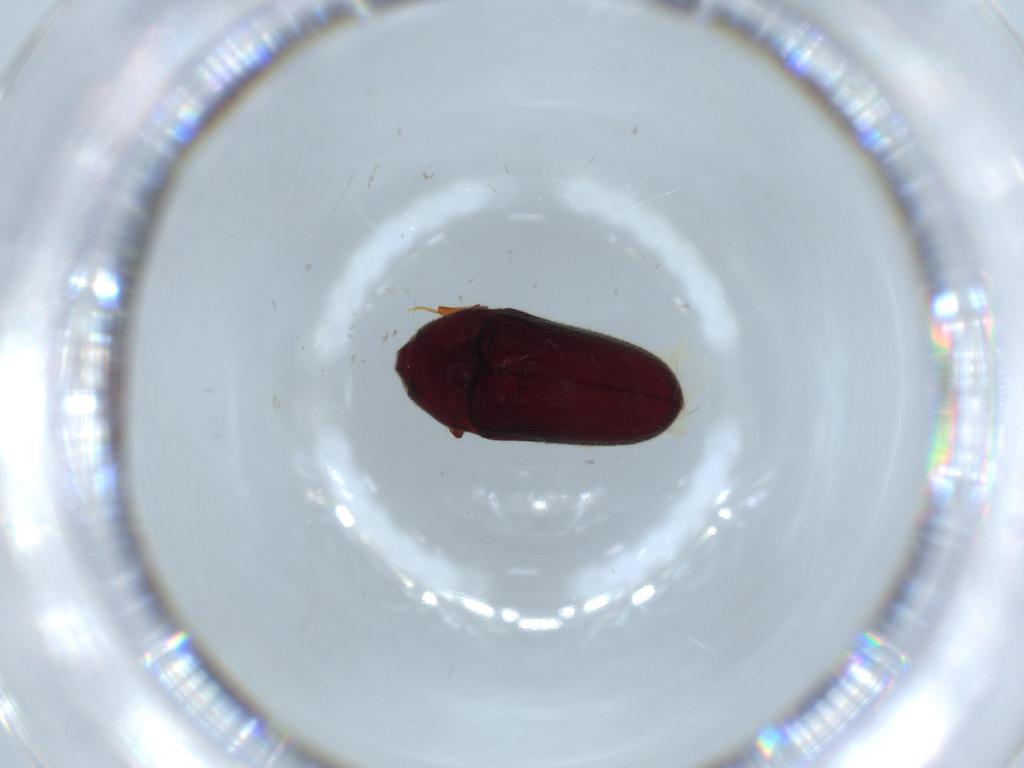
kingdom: Animalia
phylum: Arthropoda
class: Insecta
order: Coleoptera
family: Throscidae
